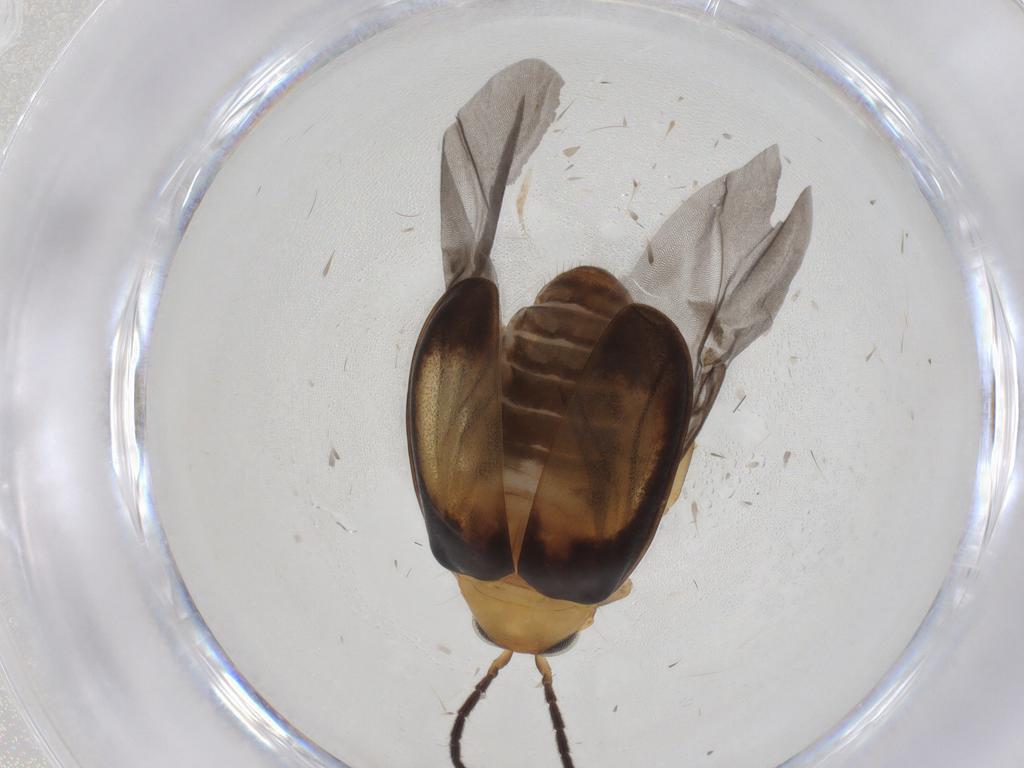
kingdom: Animalia
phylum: Arthropoda
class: Insecta
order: Coleoptera
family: Chrysomelidae
